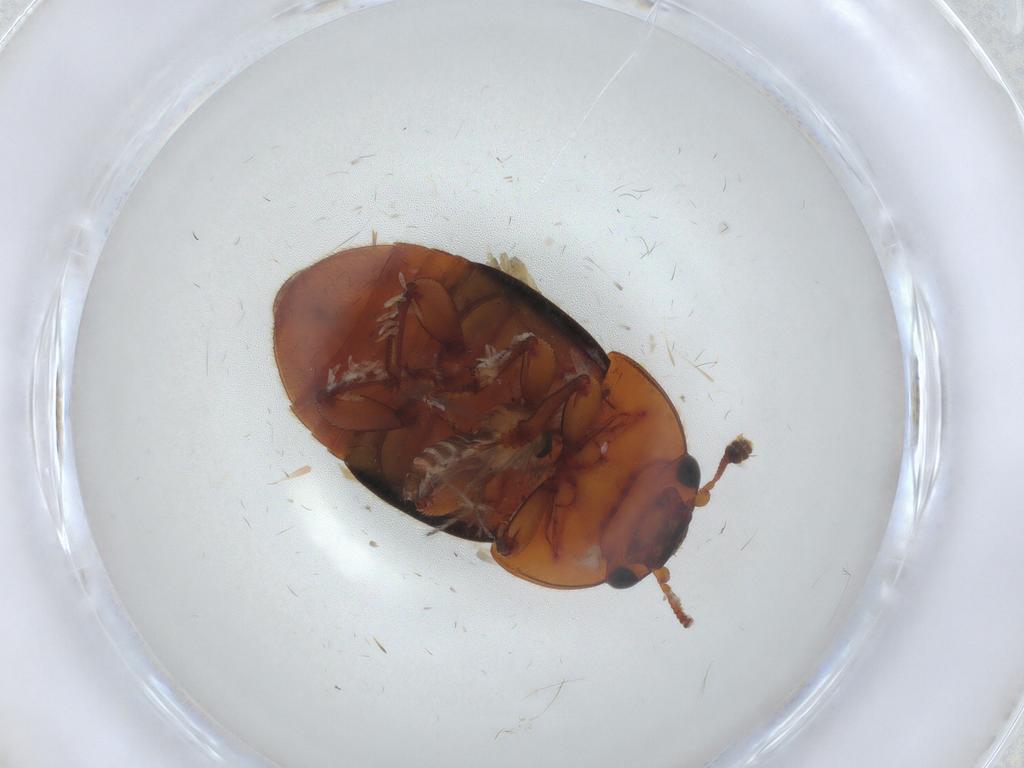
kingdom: Animalia
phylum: Arthropoda
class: Insecta
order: Coleoptera
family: Nitidulidae
